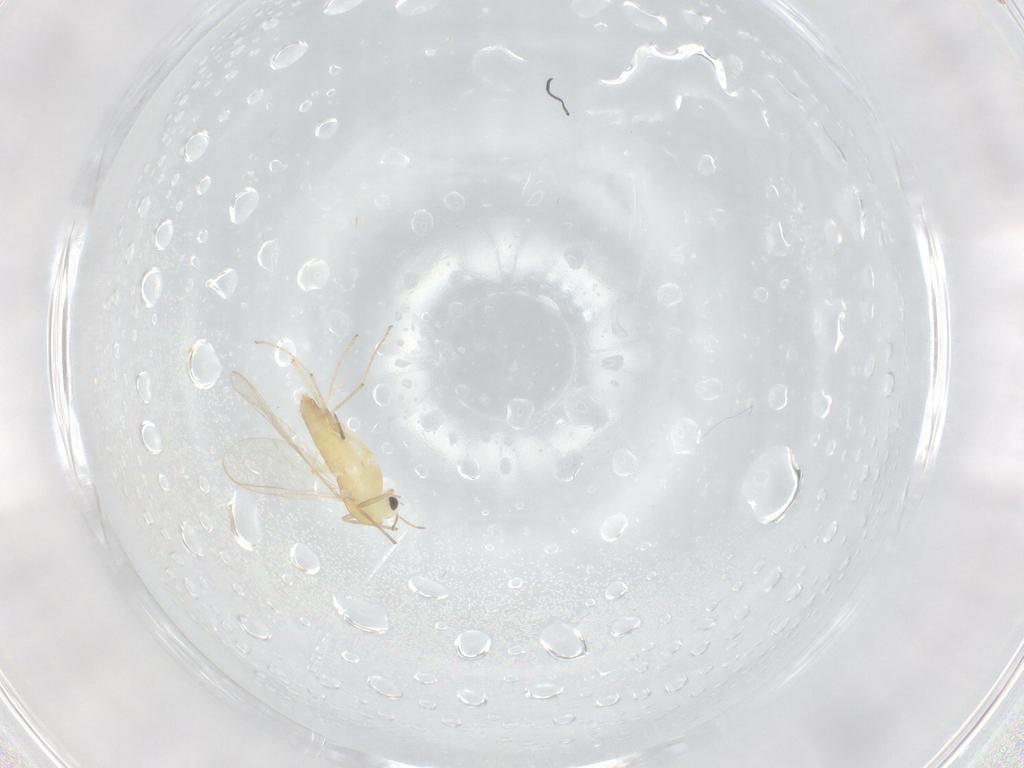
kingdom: Animalia
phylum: Arthropoda
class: Insecta
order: Diptera
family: Chironomidae
